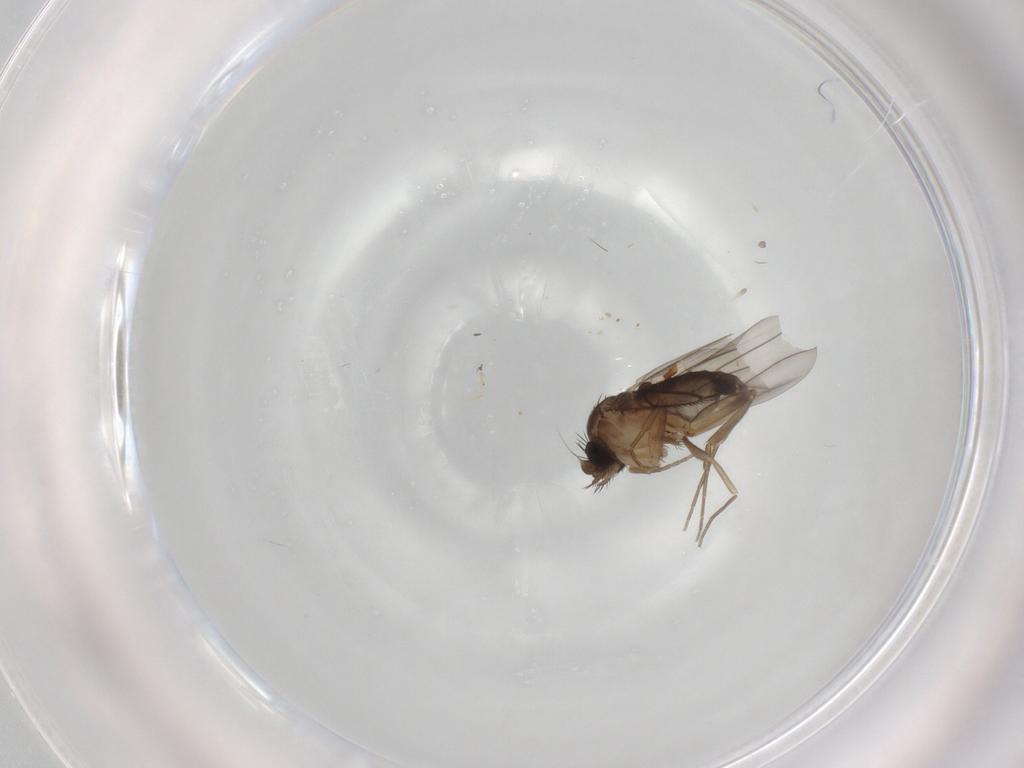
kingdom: Animalia
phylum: Arthropoda
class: Insecta
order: Diptera
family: Phoridae
